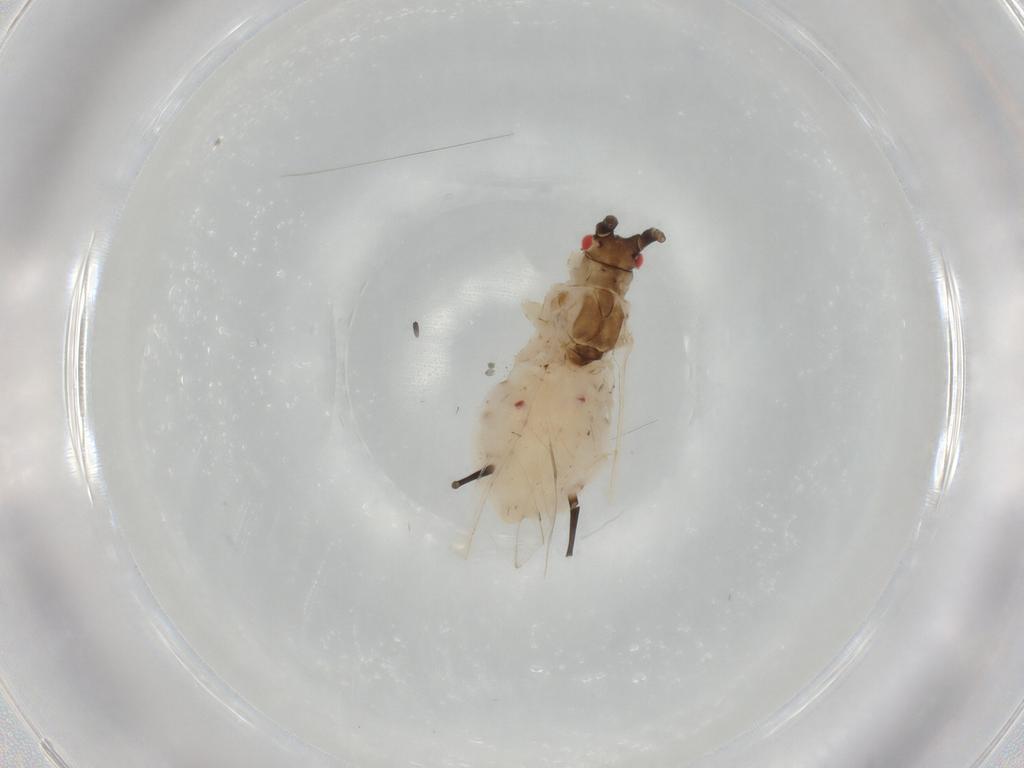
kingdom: Animalia
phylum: Arthropoda
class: Insecta
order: Hemiptera
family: Aphididae
